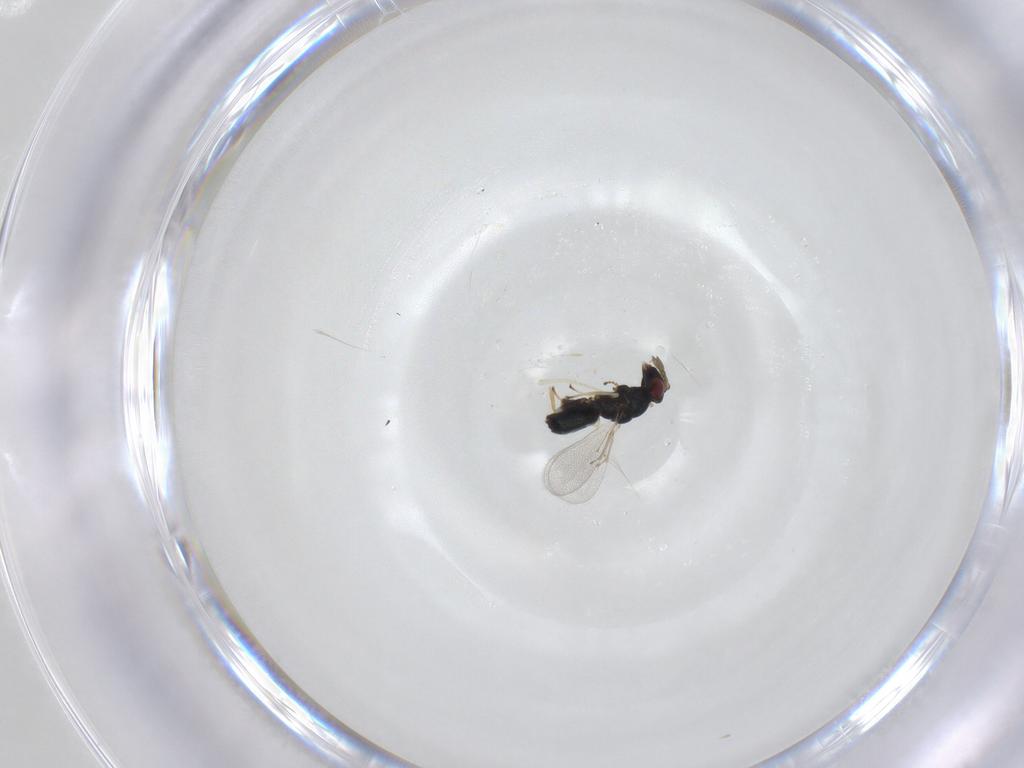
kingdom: Animalia
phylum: Arthropoda
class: Insecta
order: Hymenoptera
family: Eulophidae
